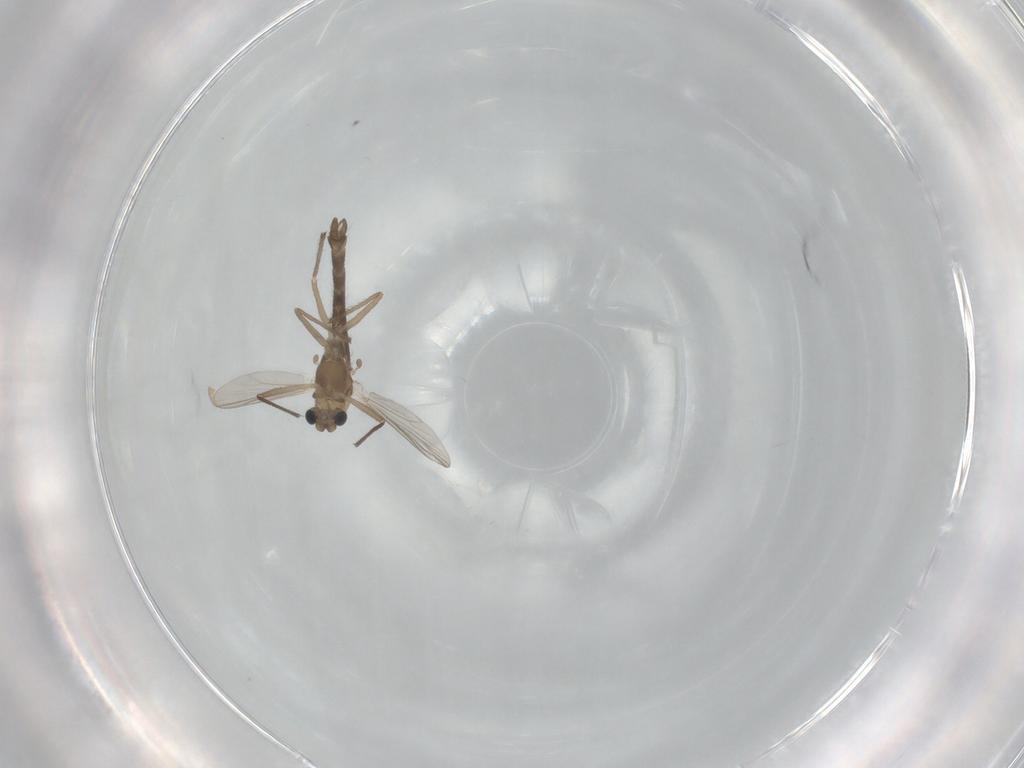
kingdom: Animalia
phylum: Arthropoda
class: Insecta
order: Diptera
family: Chironomidae
